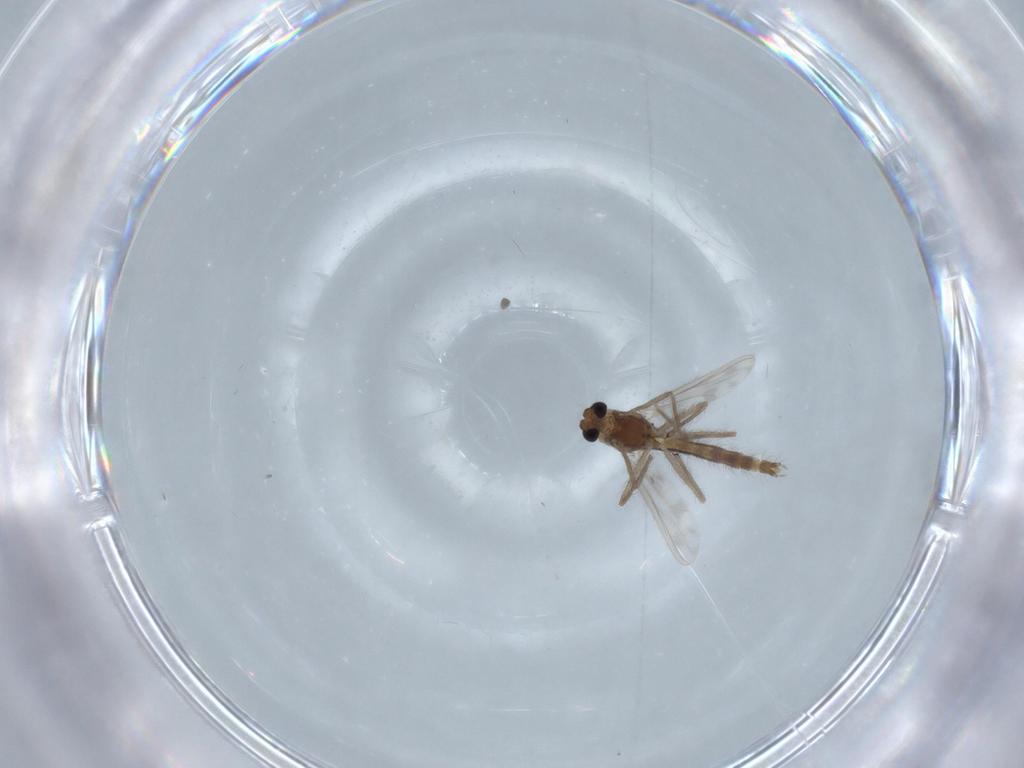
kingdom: Animalia
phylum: Arthropoda
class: Insecta
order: Diptera
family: Chironomidae
